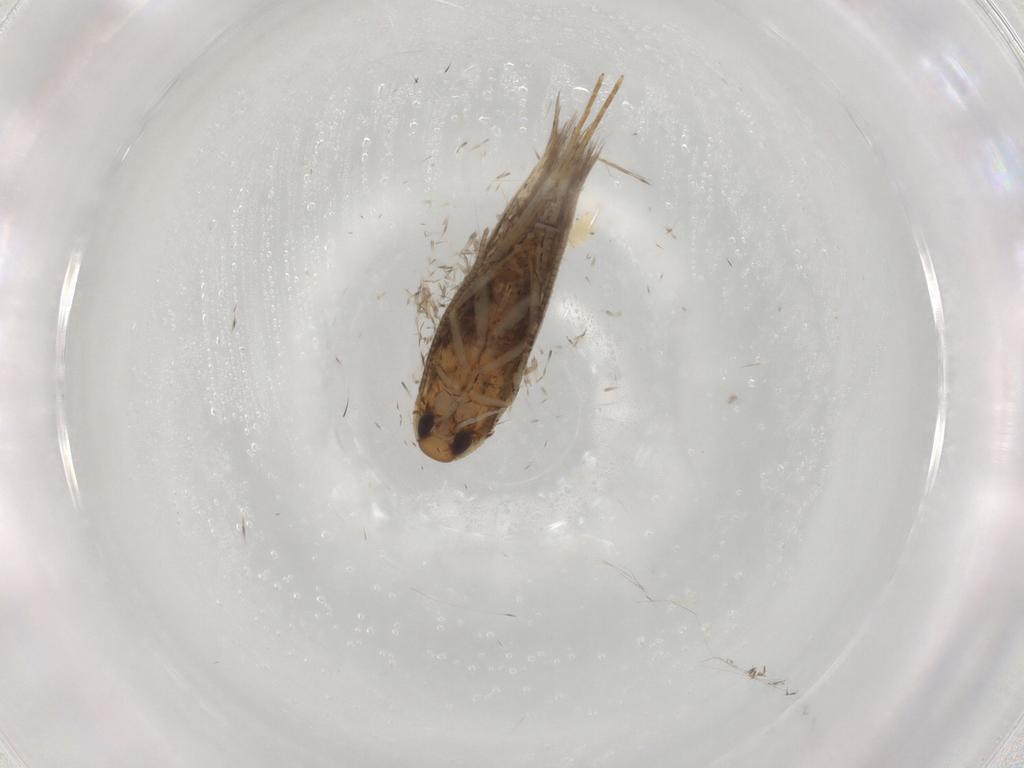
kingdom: Animalia
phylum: Arthropoda
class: Insecta
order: Lepidoptera
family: Cosmopterigidae
